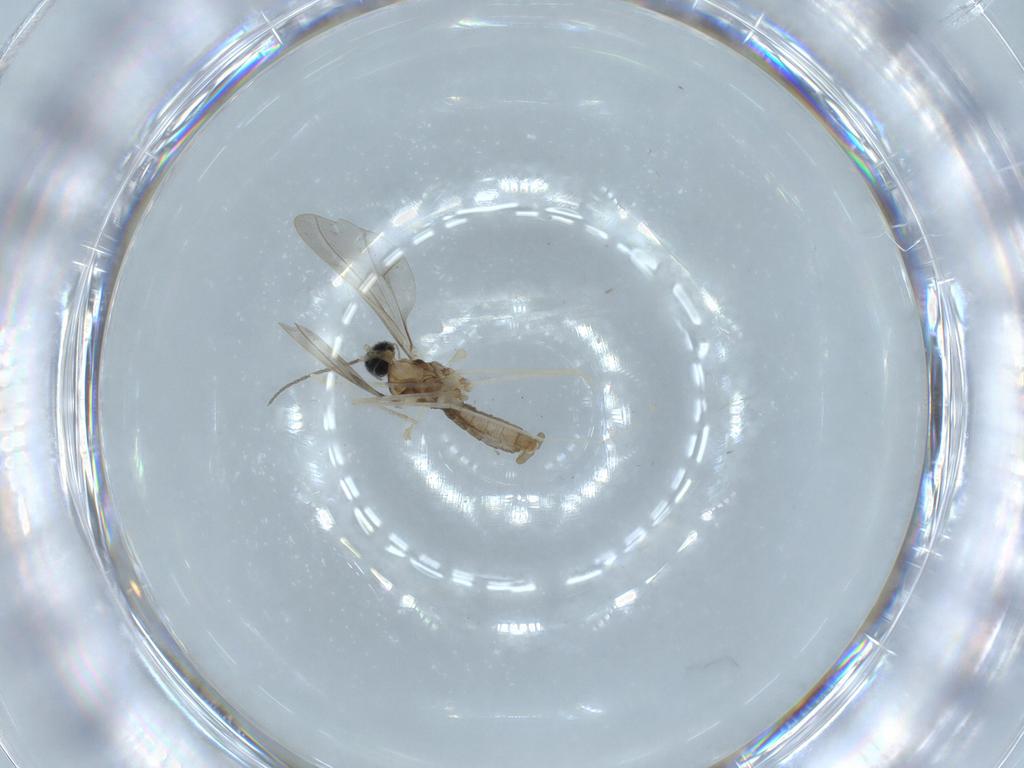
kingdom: Animalia
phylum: Arthropoda
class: Insecta
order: Diptera
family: Cecidomyiidae
